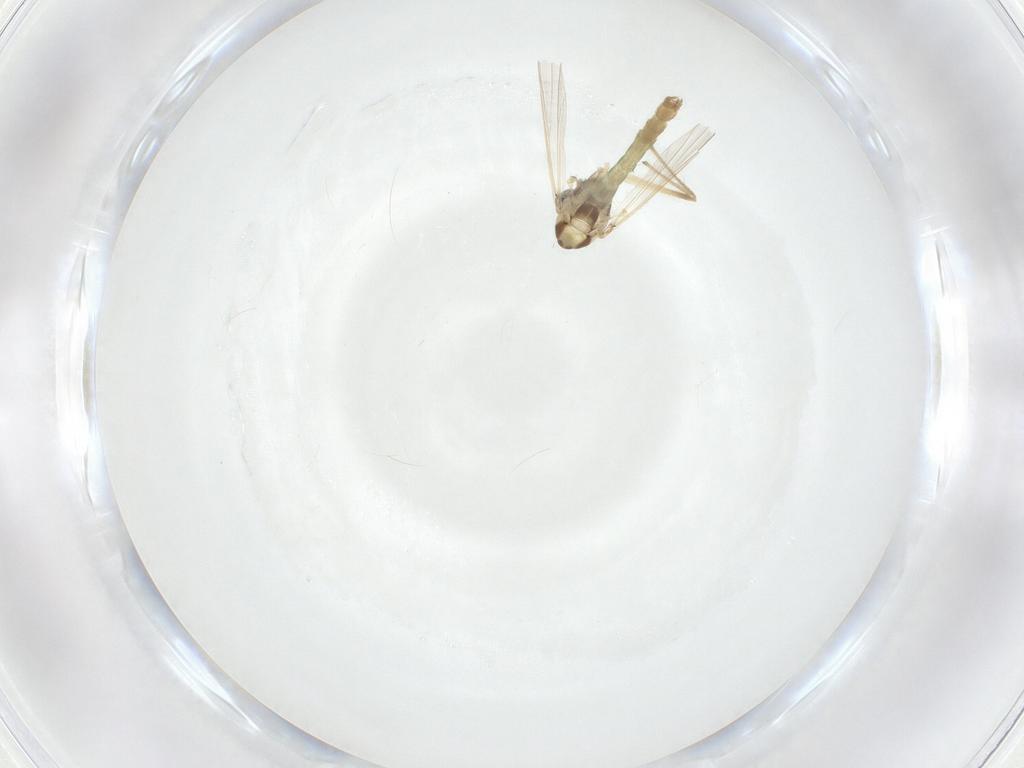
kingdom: Animalia
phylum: Arthropoda
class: Insecta
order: Diptera
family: Chironomidae
